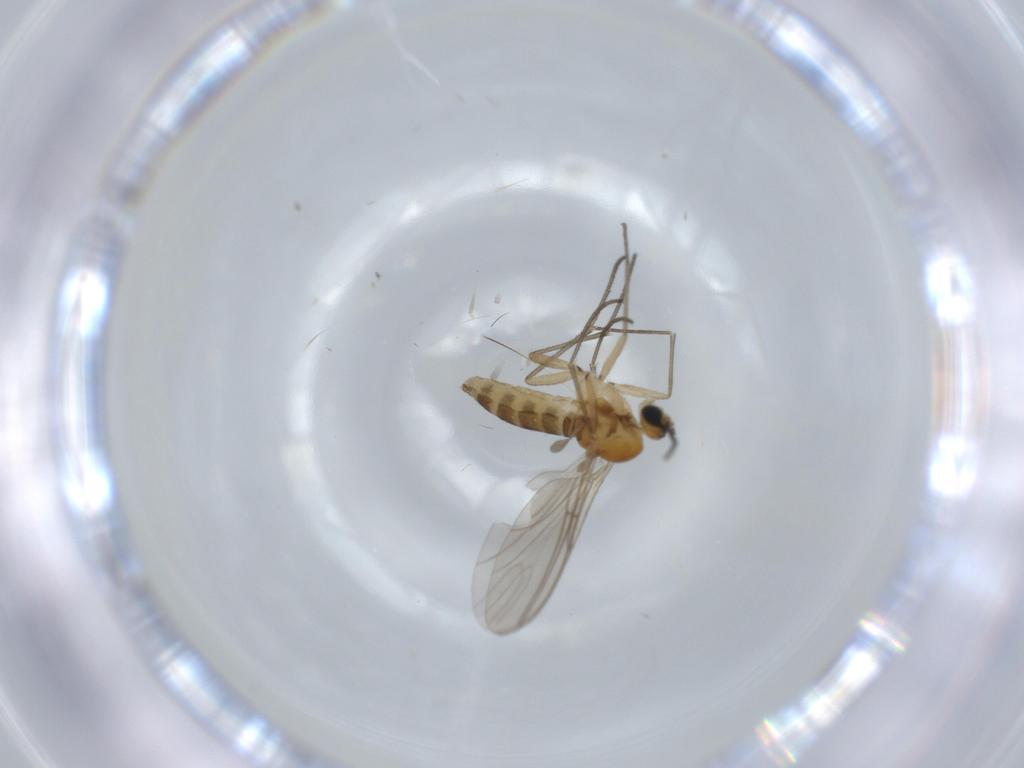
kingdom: Animalia
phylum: Arthropoda
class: Insecta
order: Diptera
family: Sciaridae
